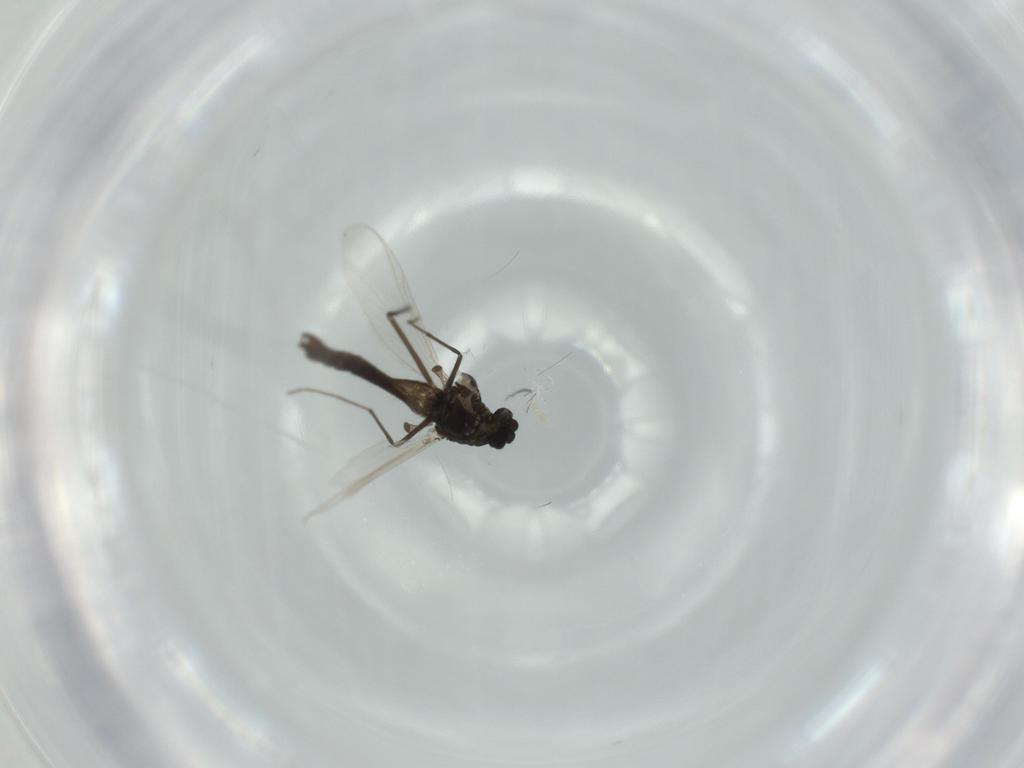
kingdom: Animalia
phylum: Arthropoda
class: Insecta
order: Diptera
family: Chironomidae
